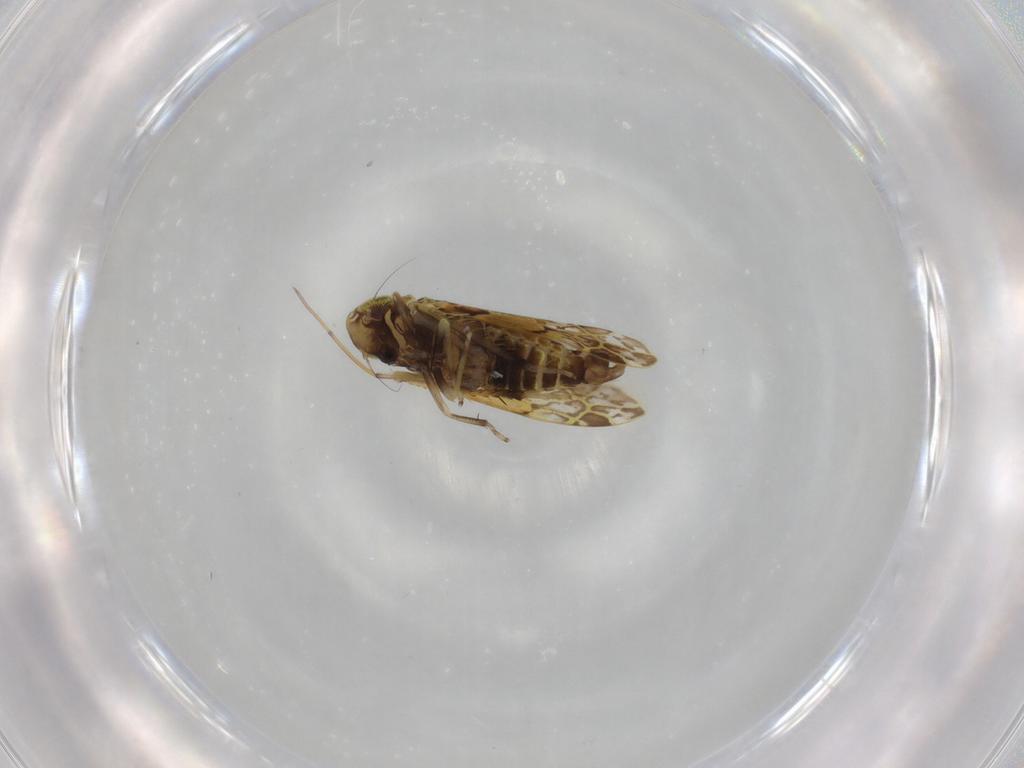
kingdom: Animalia
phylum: Arthropoda
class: Insecta
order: Hemiptera
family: Cicadellidae
